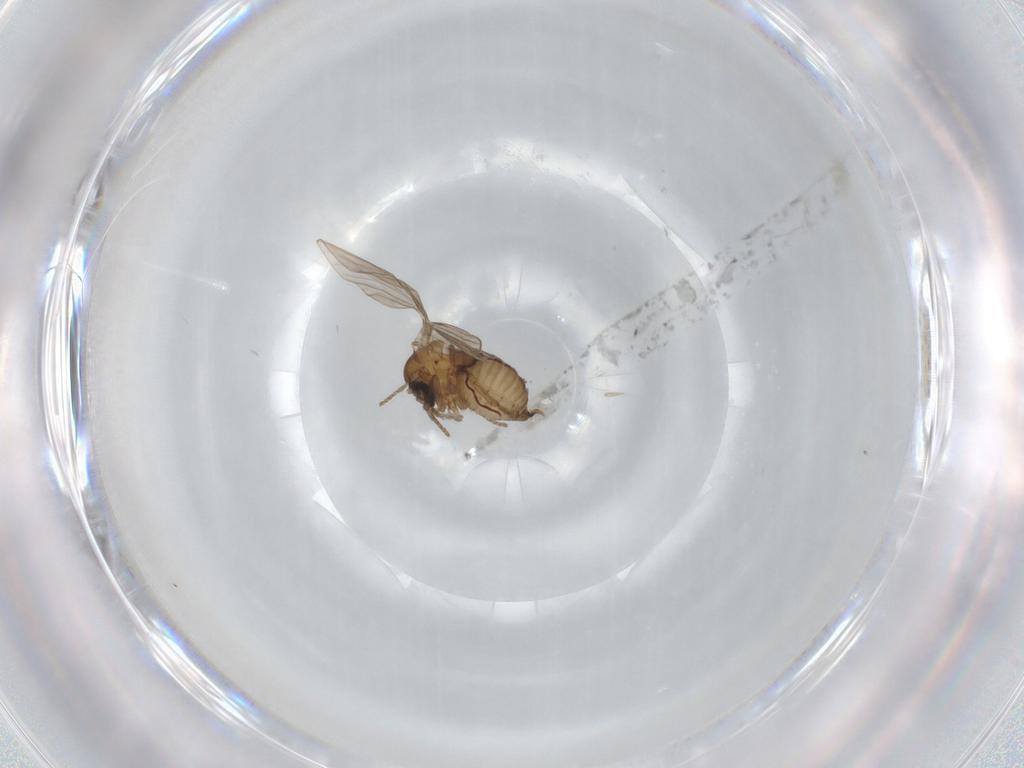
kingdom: Animalia
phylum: Arthropoda
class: Insecta
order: Diptera
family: Psychodidae
